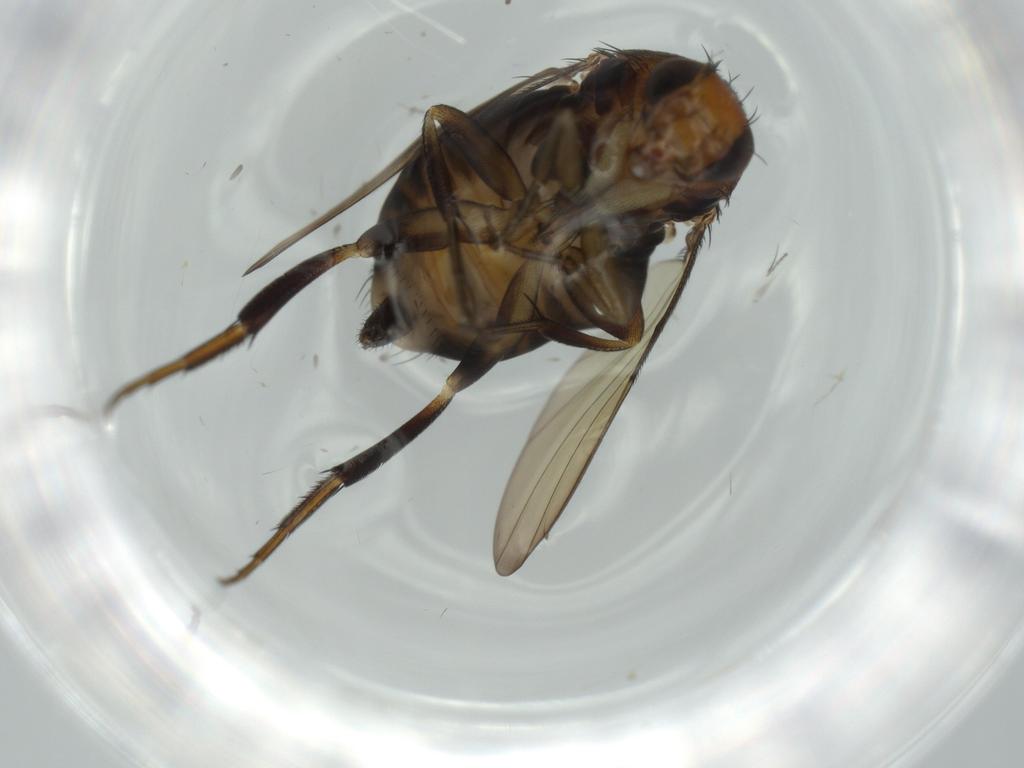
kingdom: Animalia
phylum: Arthropoda
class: Insecta
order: Diptera
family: Phoridae
